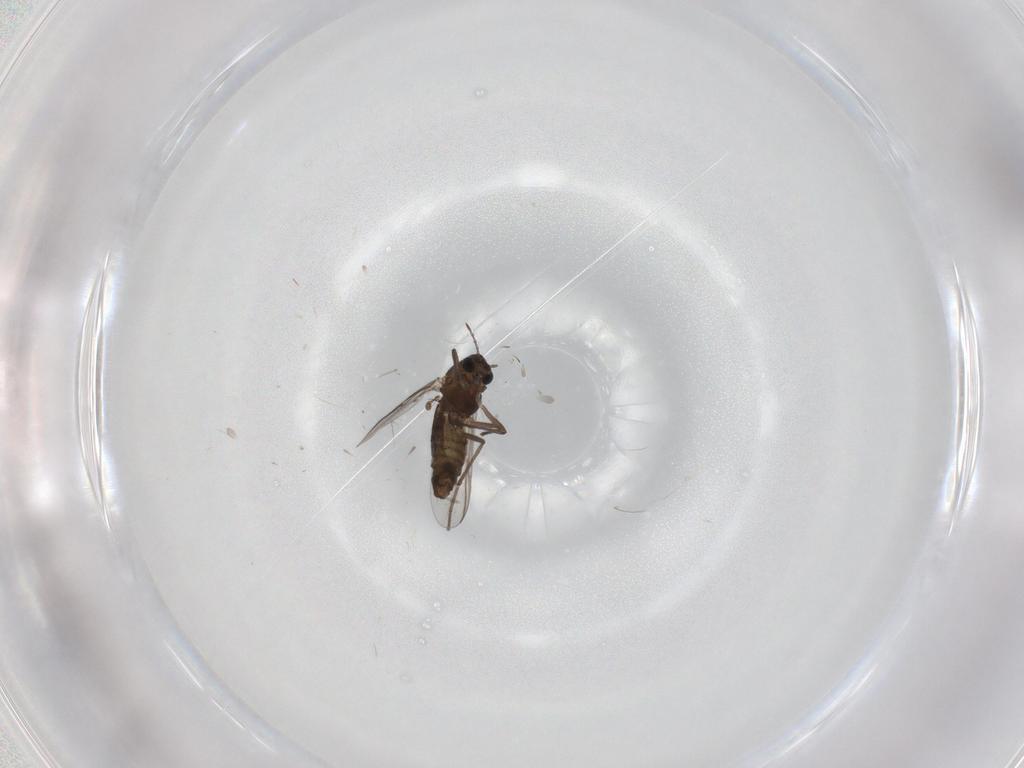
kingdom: Animalia
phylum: Arthropoda
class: Insecta
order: Diptera
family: Chironomidae
